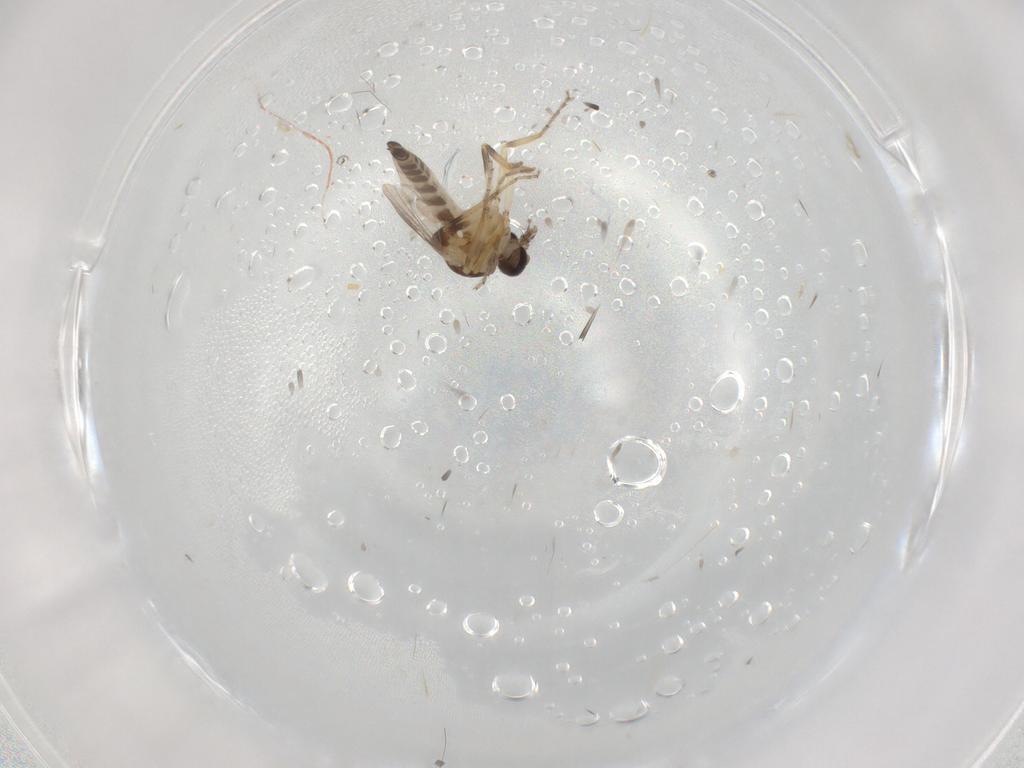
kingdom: Animalia
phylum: Arthropoda
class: Insecta
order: Diptera
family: Ceratopogonidae
